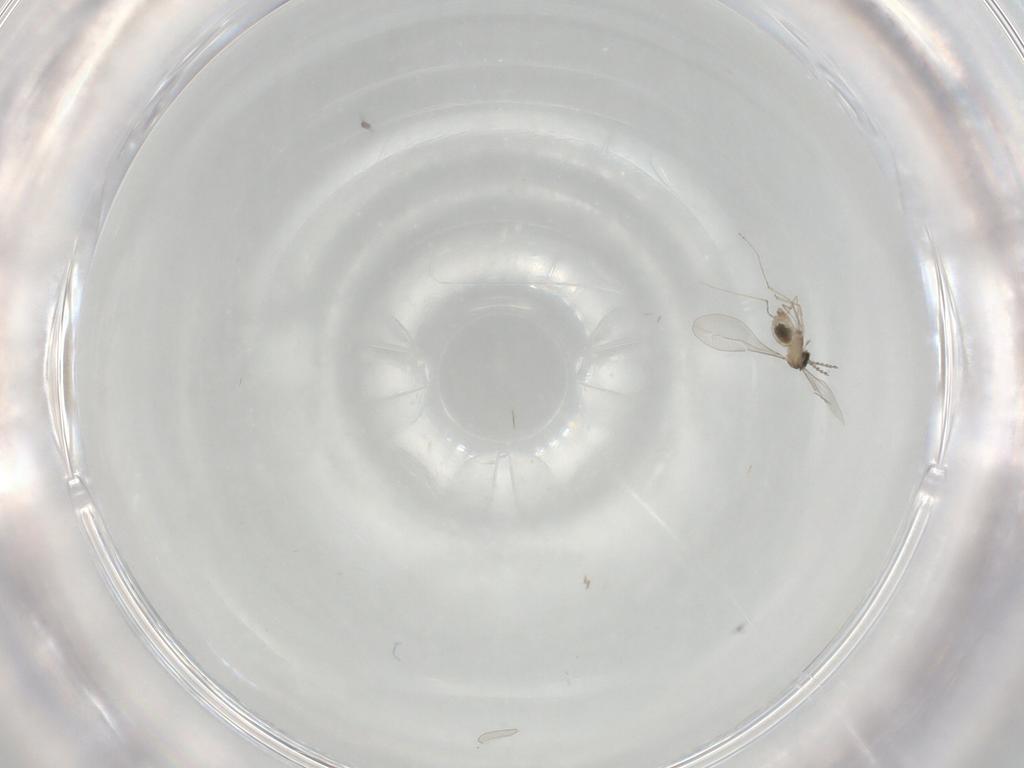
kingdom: Animalia
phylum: Arthropoda
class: Insecta
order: Diptera
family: Cecidomyiidae
